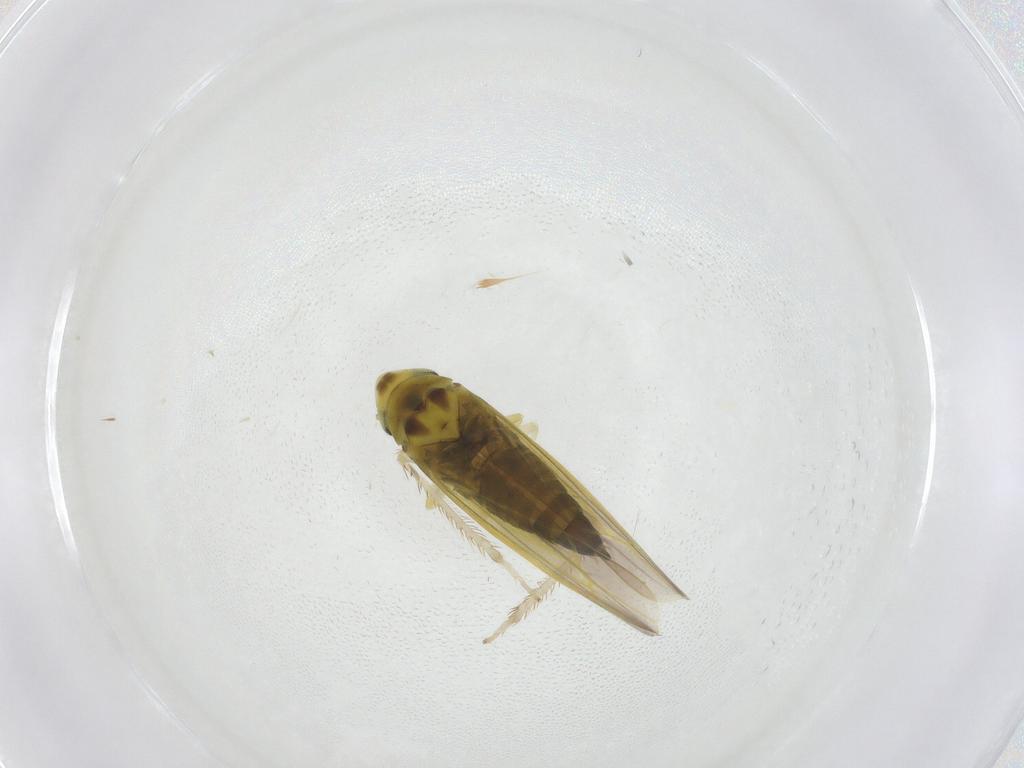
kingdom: Animalia
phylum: Arthropoda
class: Insecta
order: Hemiptera
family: Cicadellidae
